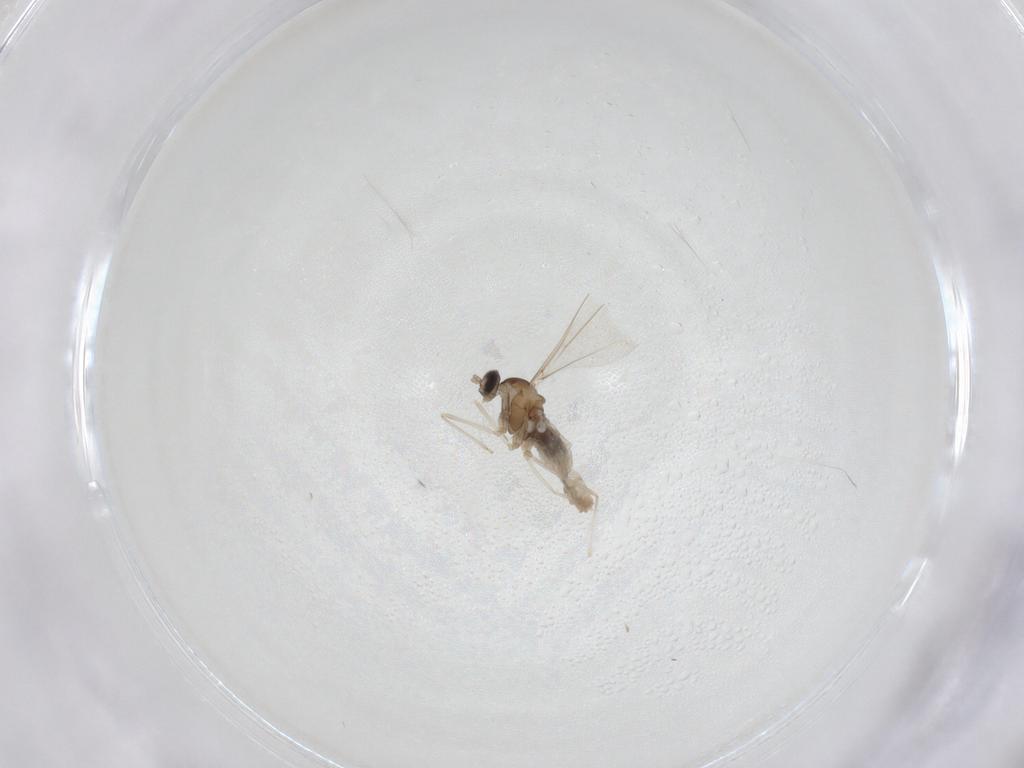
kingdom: Animalia
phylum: Arthropoda
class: Insecta
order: Diptera
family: Cecidomyiidae
